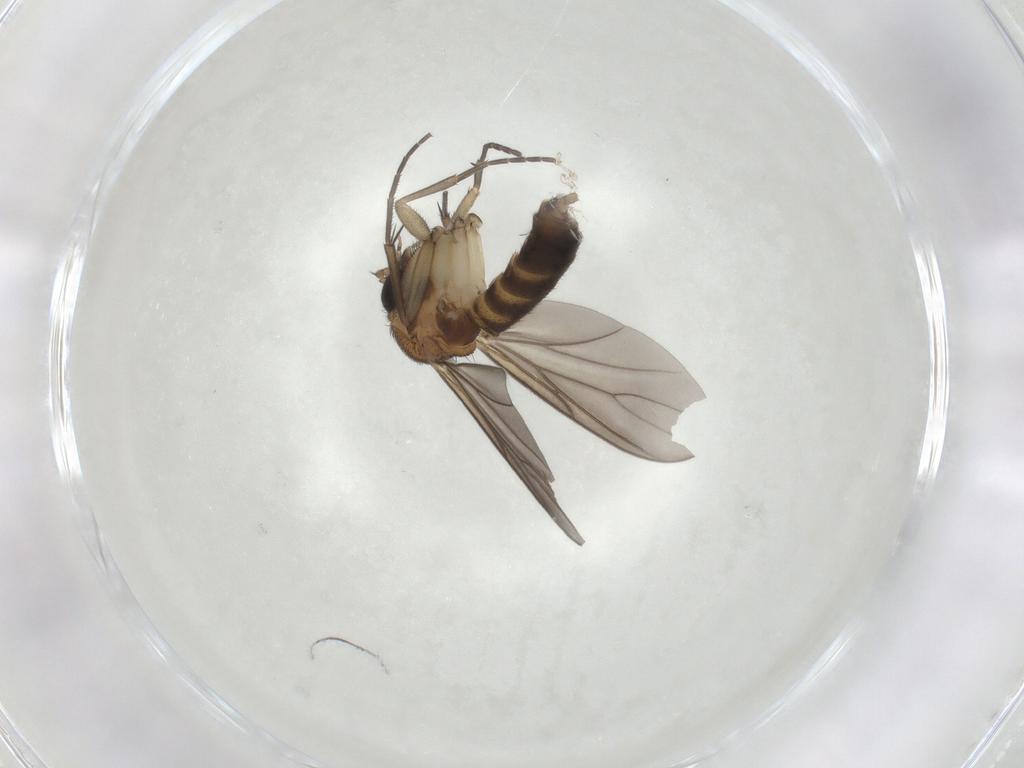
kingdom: Animalia
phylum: Arthropoda
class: Insecta
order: Diptera
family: Mycetophilidae
